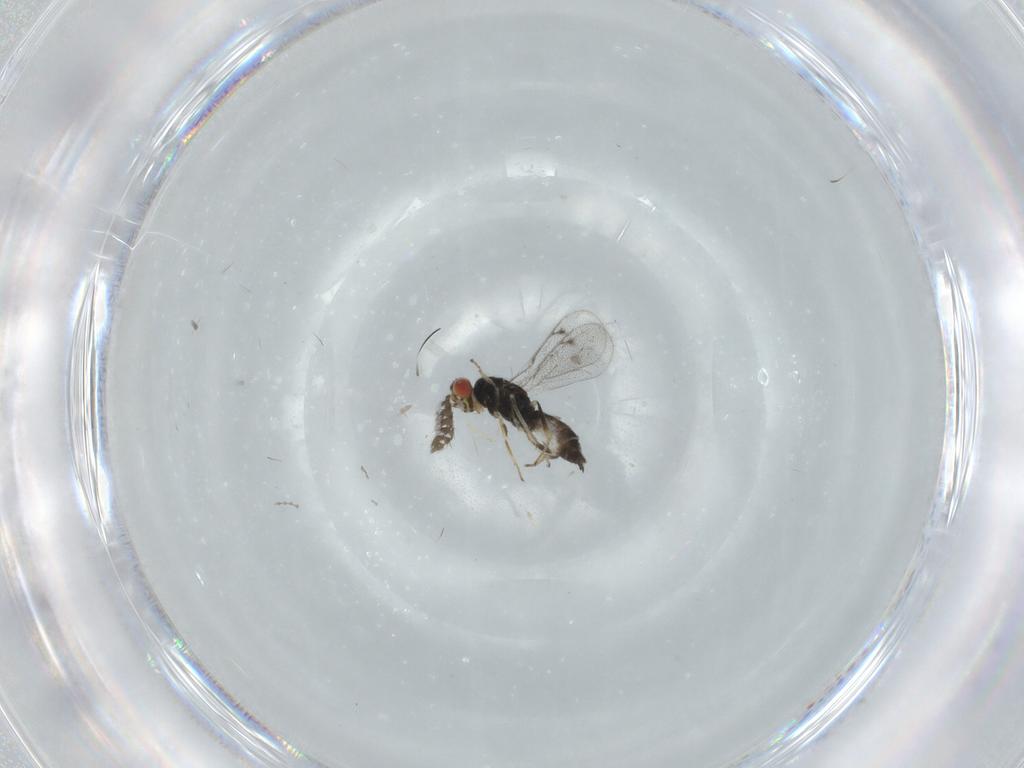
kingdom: Animalia
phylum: Arthropoda
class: Insecta
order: Hymenoptera
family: Eulophidae
